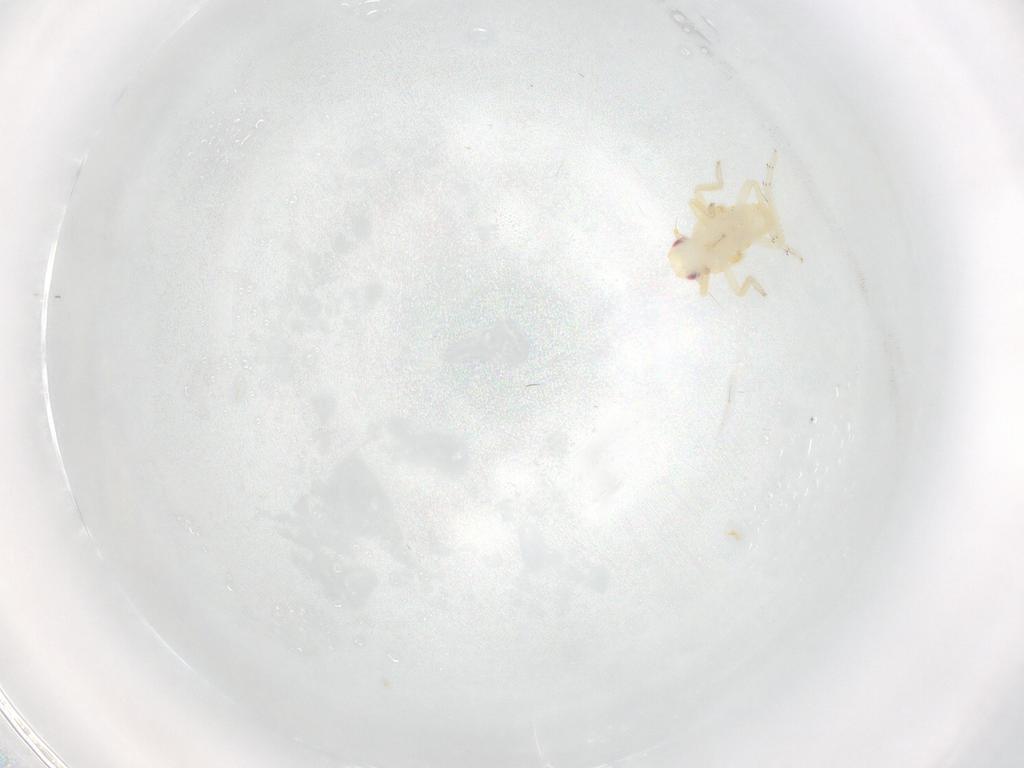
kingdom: Animalia
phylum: Arthropoda
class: Insecta
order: Hemiptera
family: Tropiduchidae
